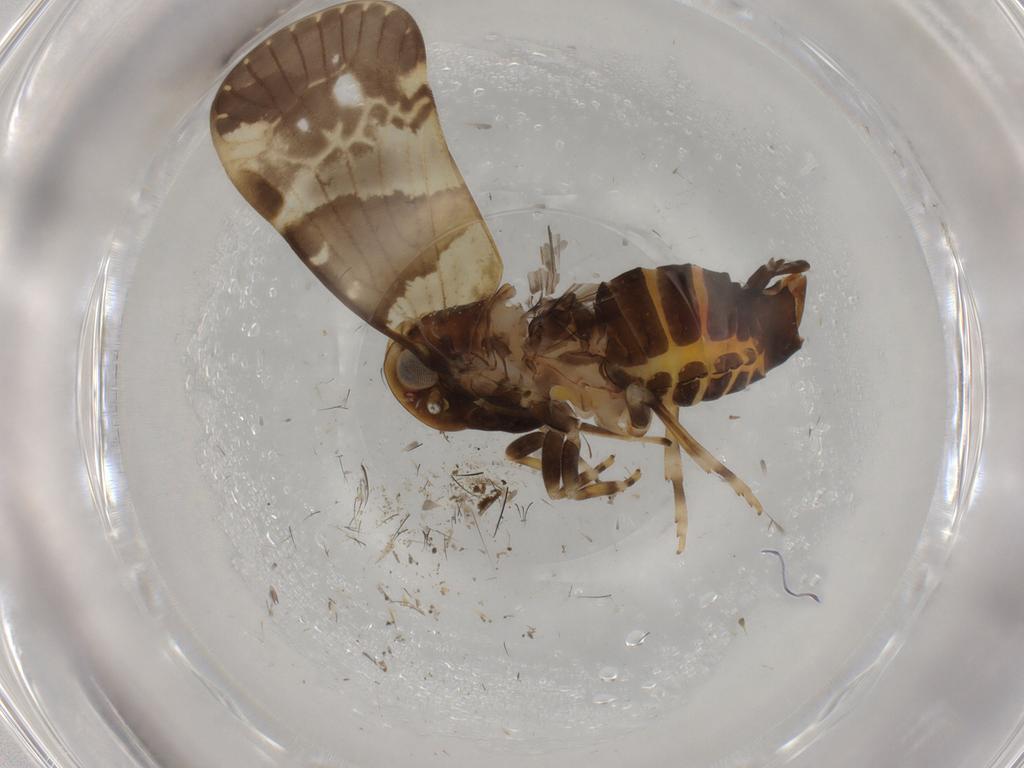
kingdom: Animalia
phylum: Arthropoda
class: Insecta
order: Hemiptera
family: Cixiidae
